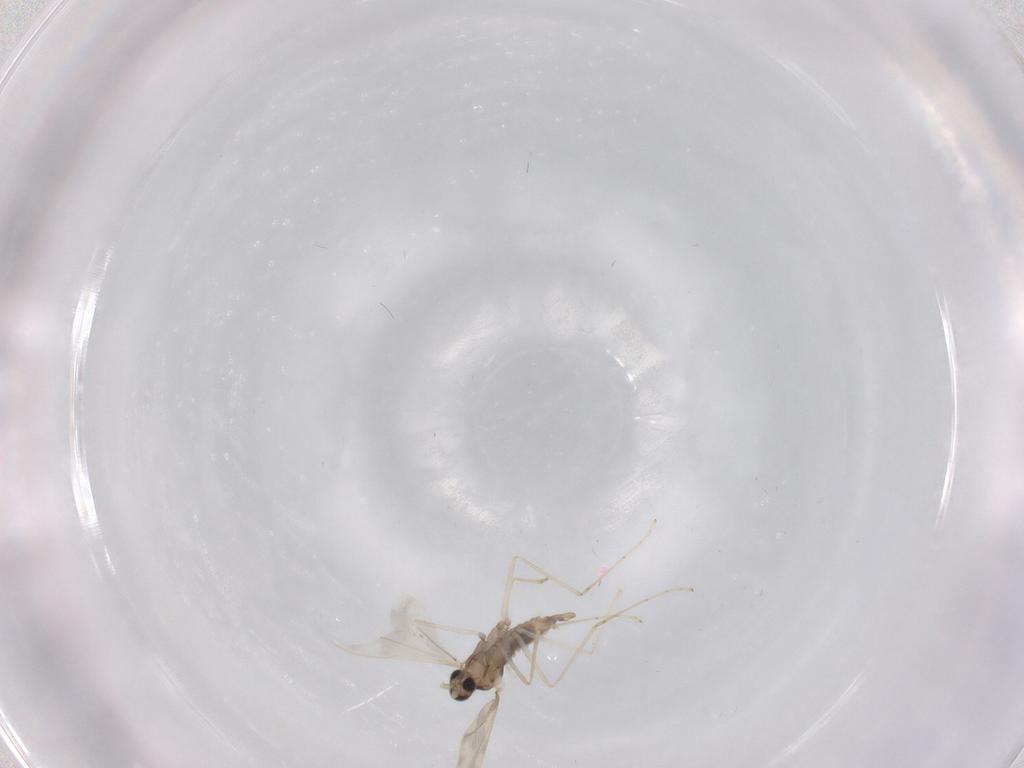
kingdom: Animalia
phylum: Arthropoda
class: Insecta
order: Diptera
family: Cecidomyiidae
